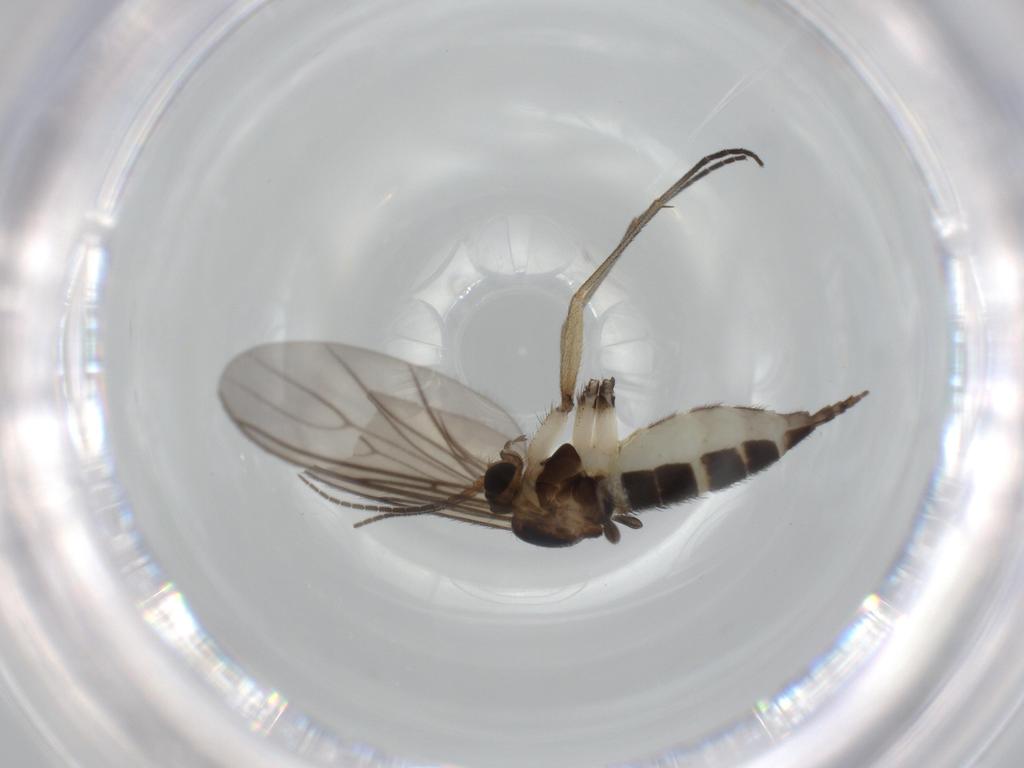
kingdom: Animalia
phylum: Arthropoda
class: Insecta
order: Diptera
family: Sciaridae
